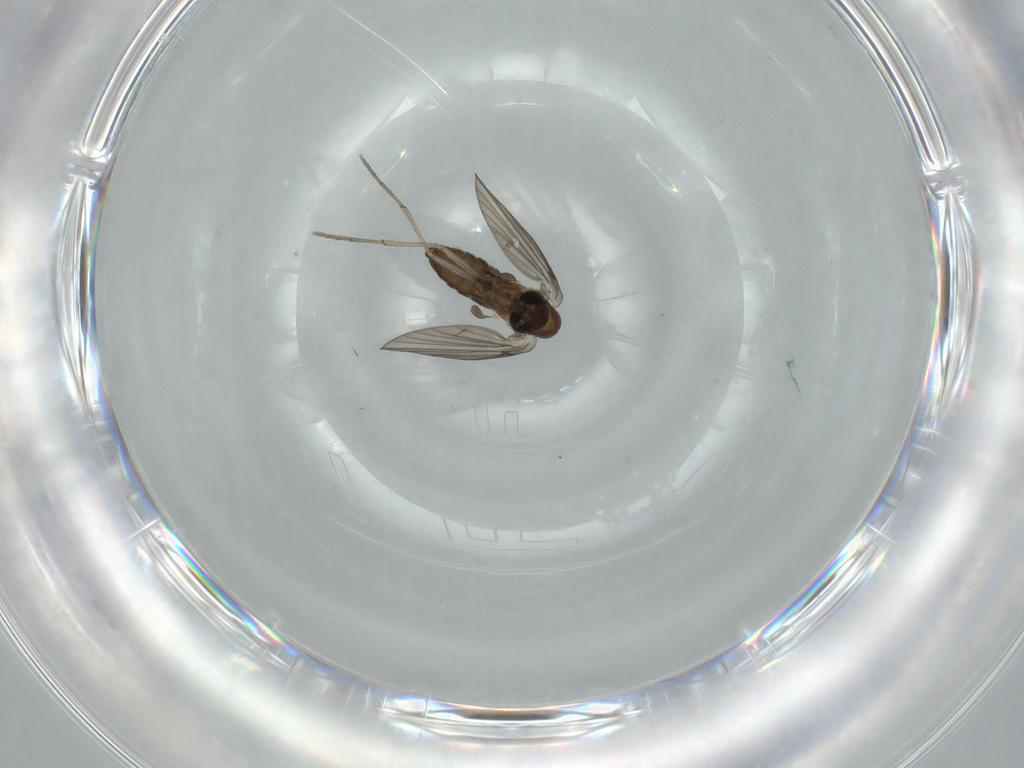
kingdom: Animalia
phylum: Arthropoda
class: Insecta
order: Diptera
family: Psychodidae
